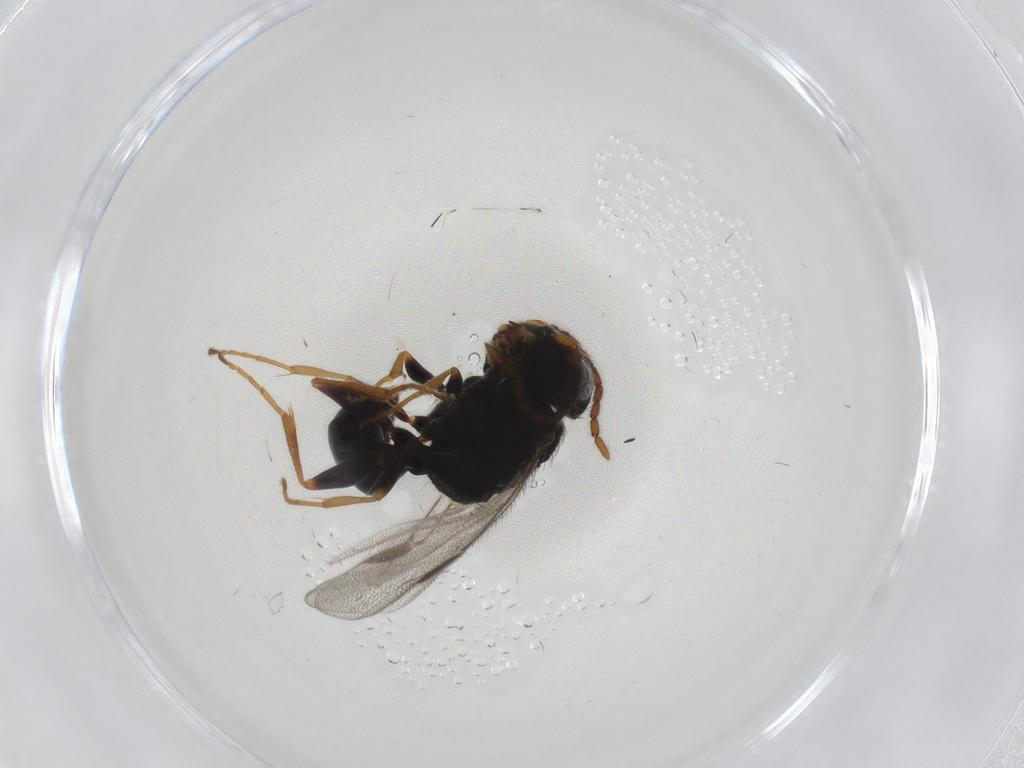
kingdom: Animalia
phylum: Arthropoda
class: Insecta
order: Hymenoptera
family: Dryinidae
